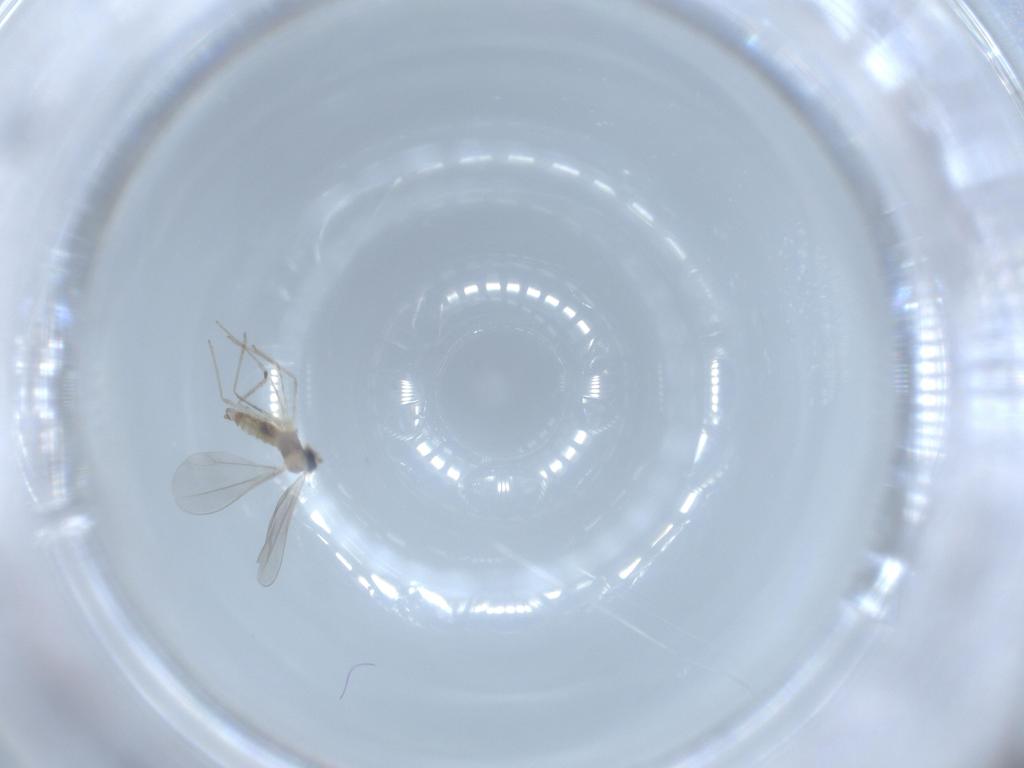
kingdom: Animalia
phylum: Arthropoda
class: Insecta
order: Diptera
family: Cecidomyiidae
